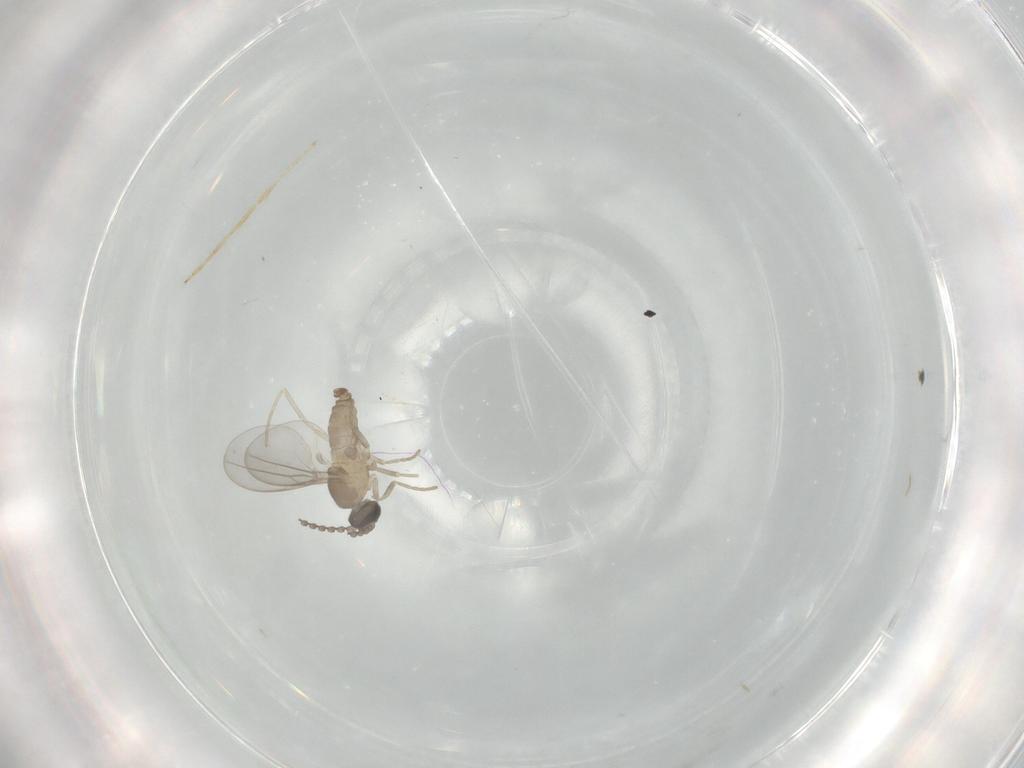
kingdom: Animalia
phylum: Arthropoda
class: Insecta
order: Diptera
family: Cecidomyiidae
